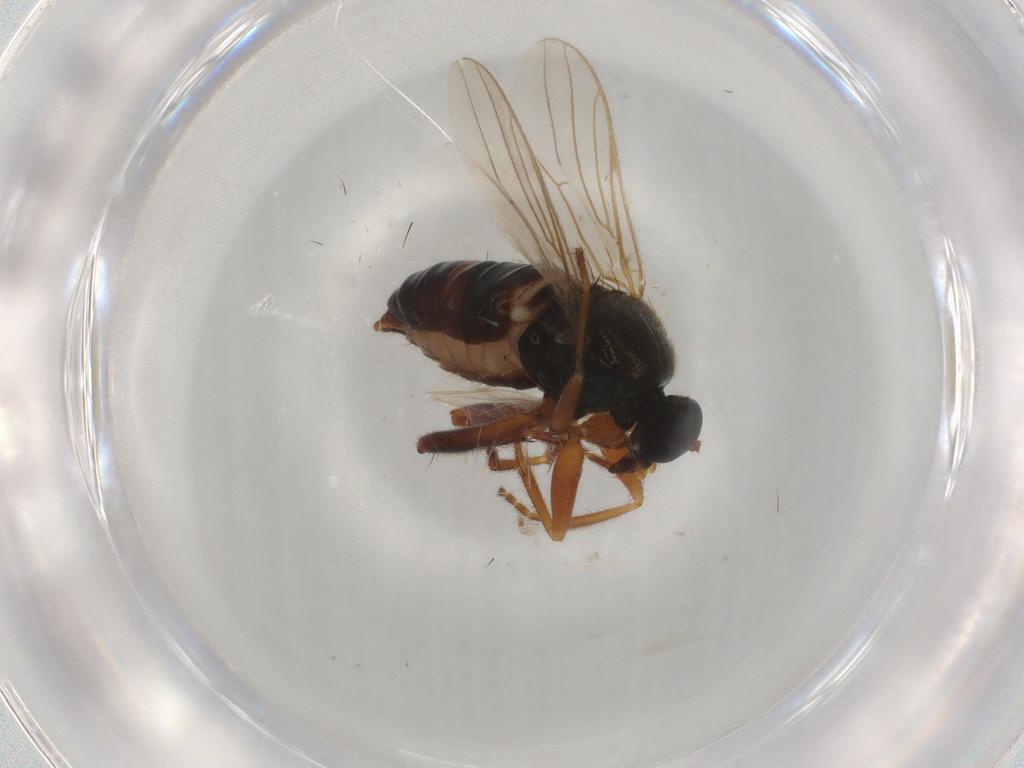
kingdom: Animalia
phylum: Arthropoda
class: Insecta
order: Diptera
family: Hybotidae
